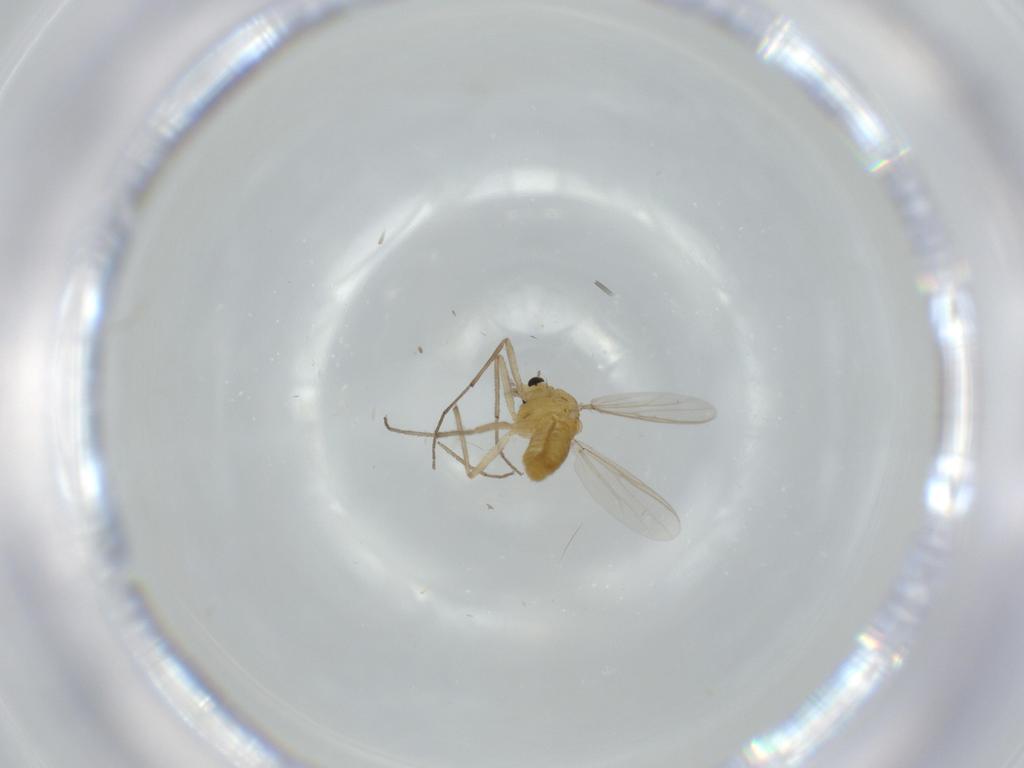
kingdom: Animalia
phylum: Arthropoda
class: Insecta
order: Diptera
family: Chironomidae
